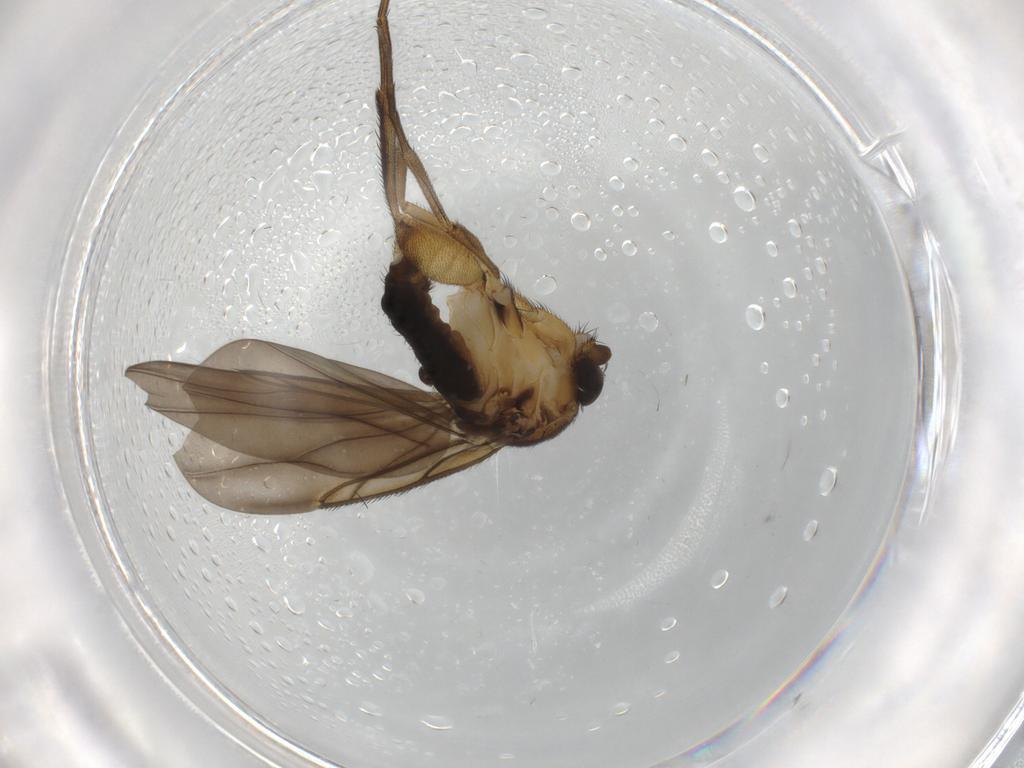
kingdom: Animalia
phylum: Arthropoda
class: Insecta
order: Diptera
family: Phoridae
